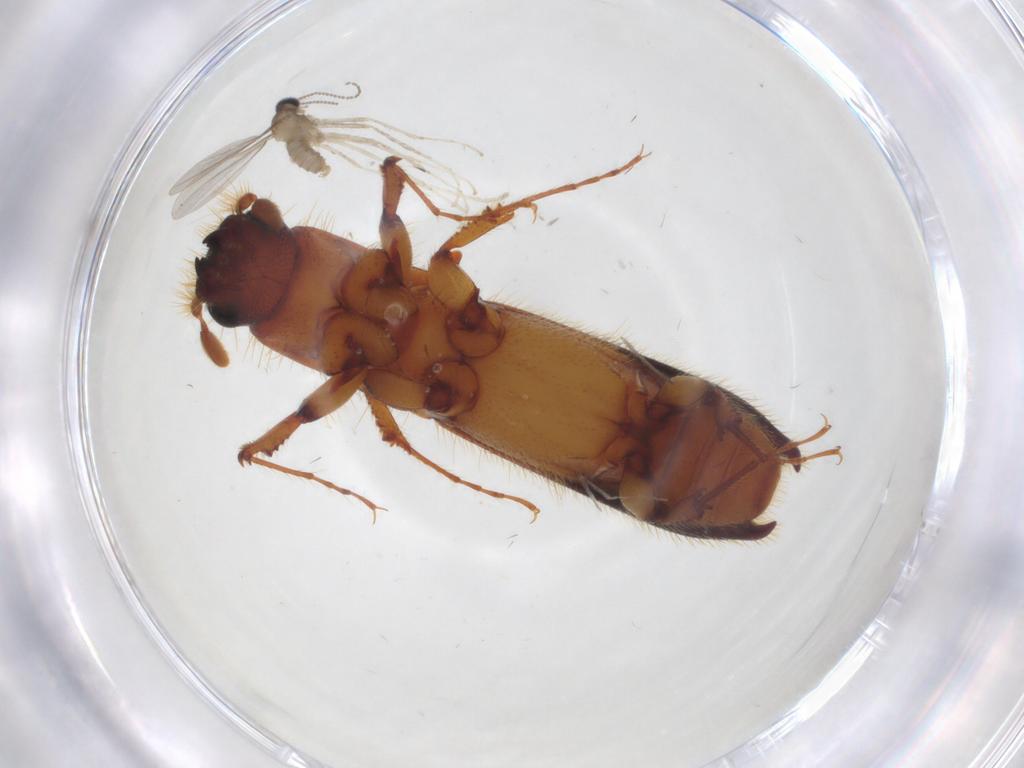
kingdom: Animalia
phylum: Arthropoda
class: Insecta
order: Coleoptera
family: Curculionidae
